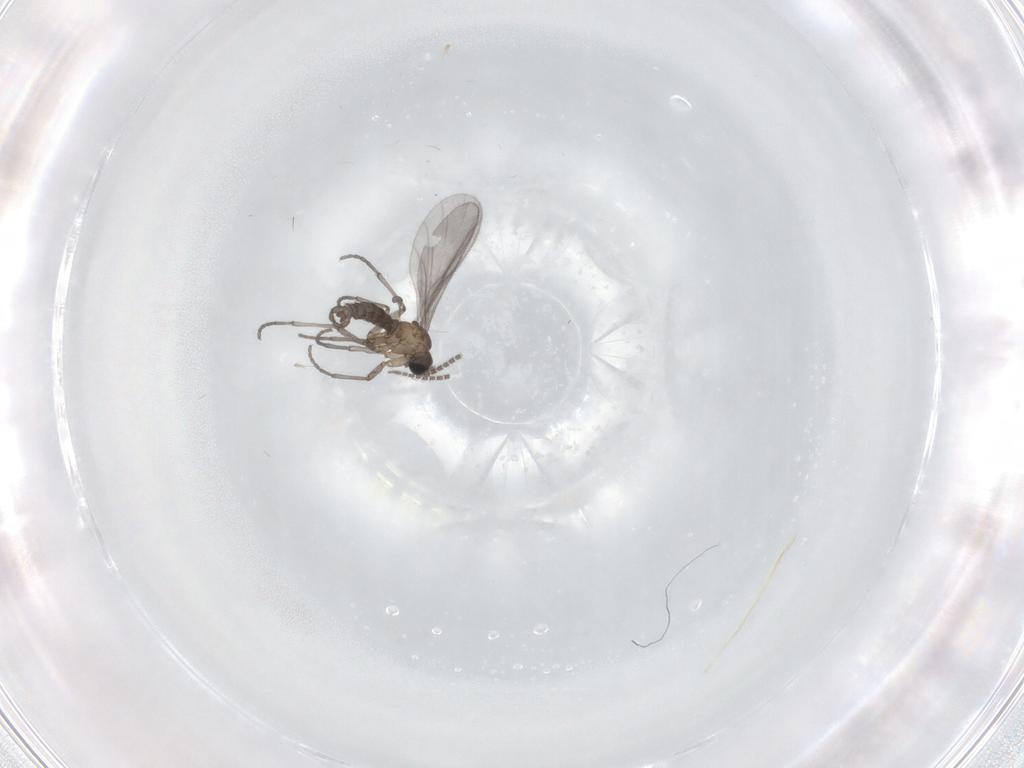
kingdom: Animalia
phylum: Arthropoda
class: Insecta
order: Diptera
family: Sciaridae
